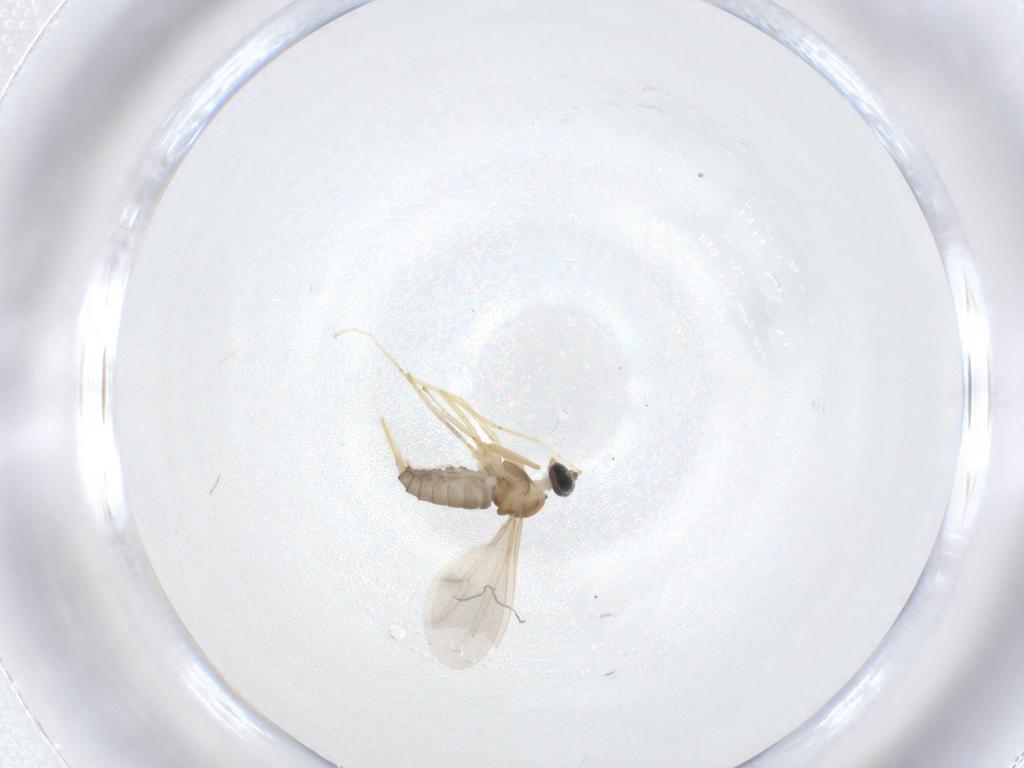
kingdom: Animalia
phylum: Arthropoda
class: Insecta
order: Diptera
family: Cecidomyiidae
